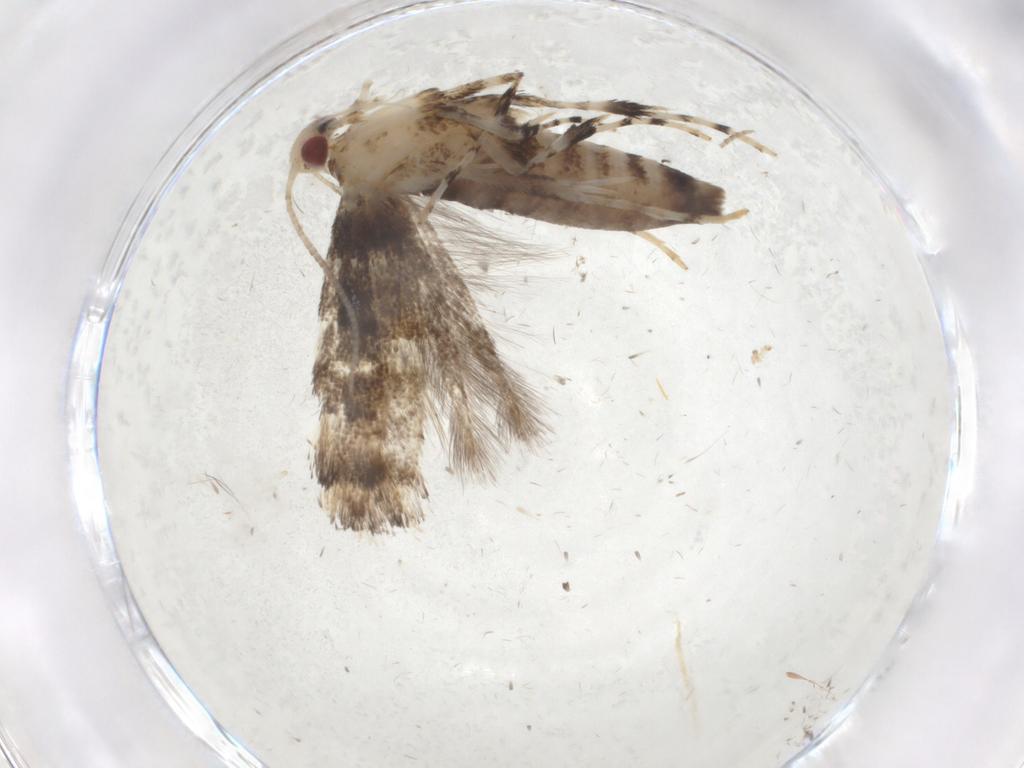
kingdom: Animalia
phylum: Arthropoda
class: Insecta
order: Lepidoptera
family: Gracillariidae
